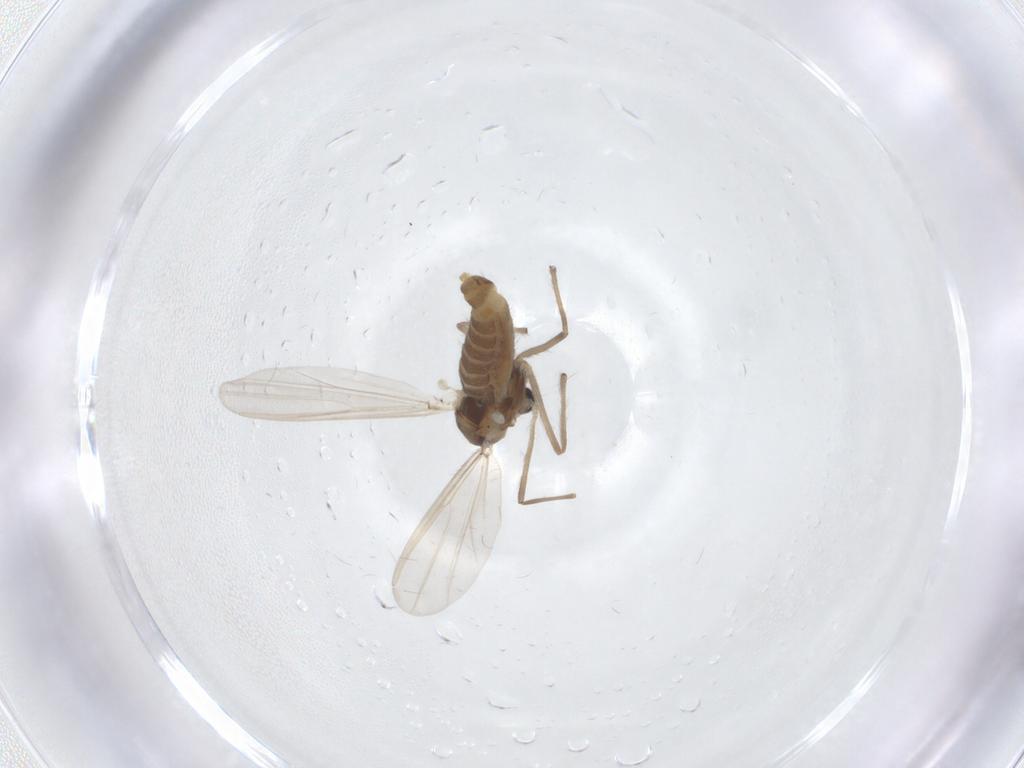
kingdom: Animalia
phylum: Arthropoda
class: Insecta
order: Diptera
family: Chironomidae
